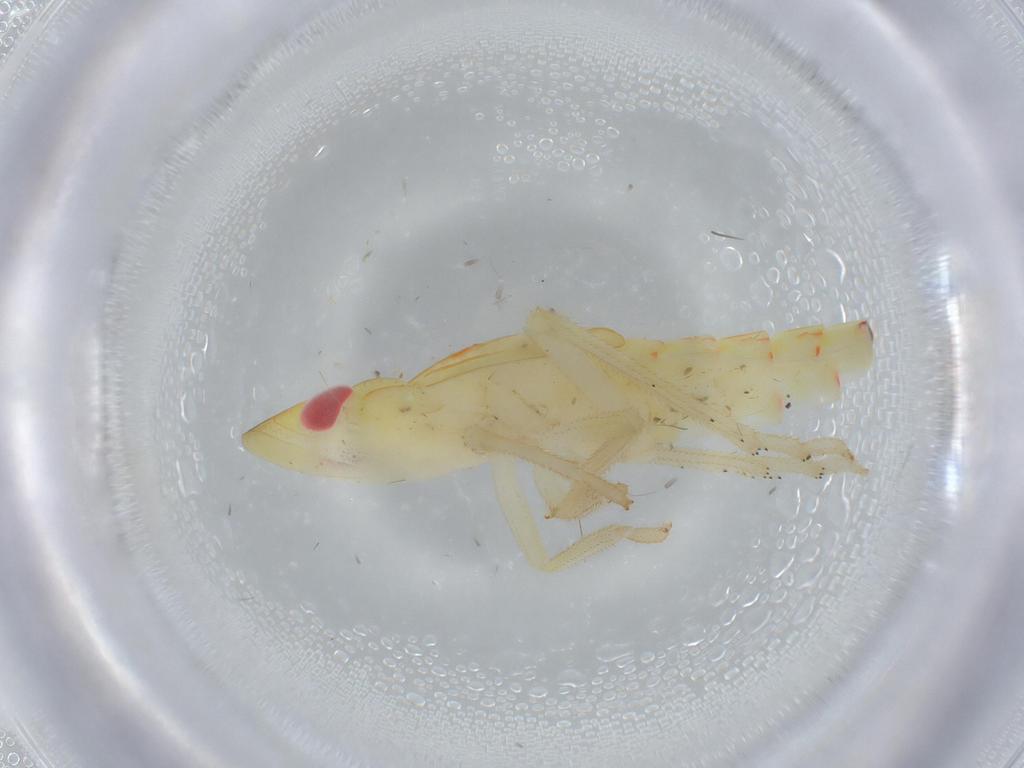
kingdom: Animalia
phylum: Arthropoda
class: Insecta
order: Hemiptera
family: Tropiduchidae
